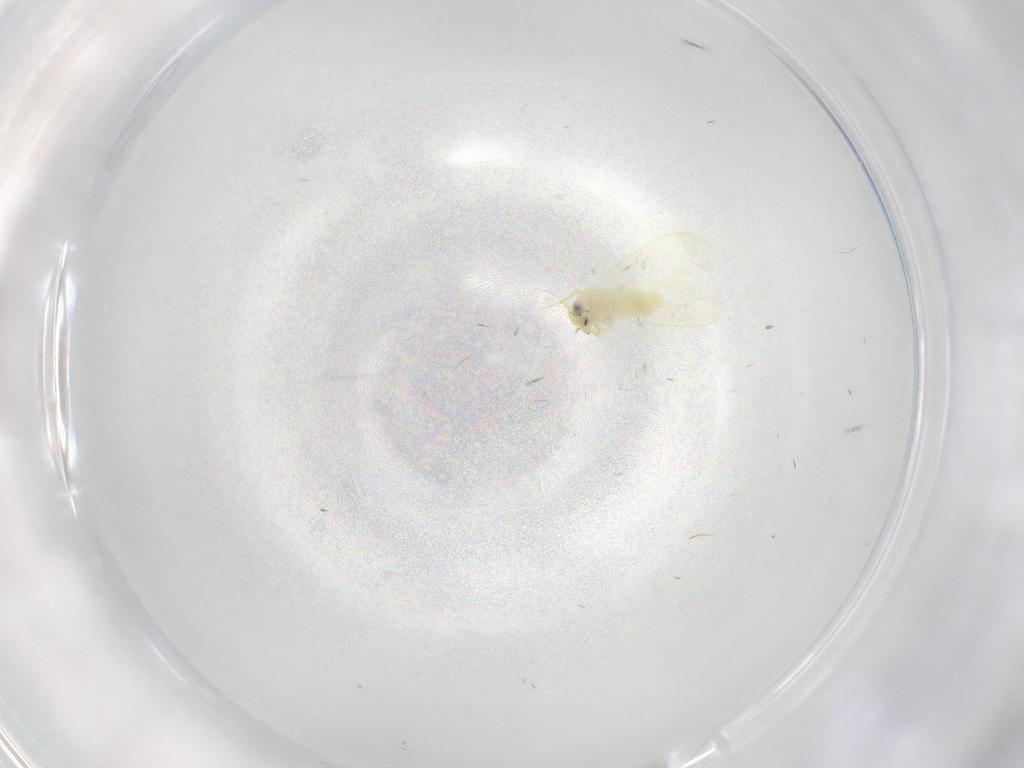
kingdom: Animalia
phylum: Arthropoda
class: Insecta
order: Hemiptera
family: Aleyrodidae
